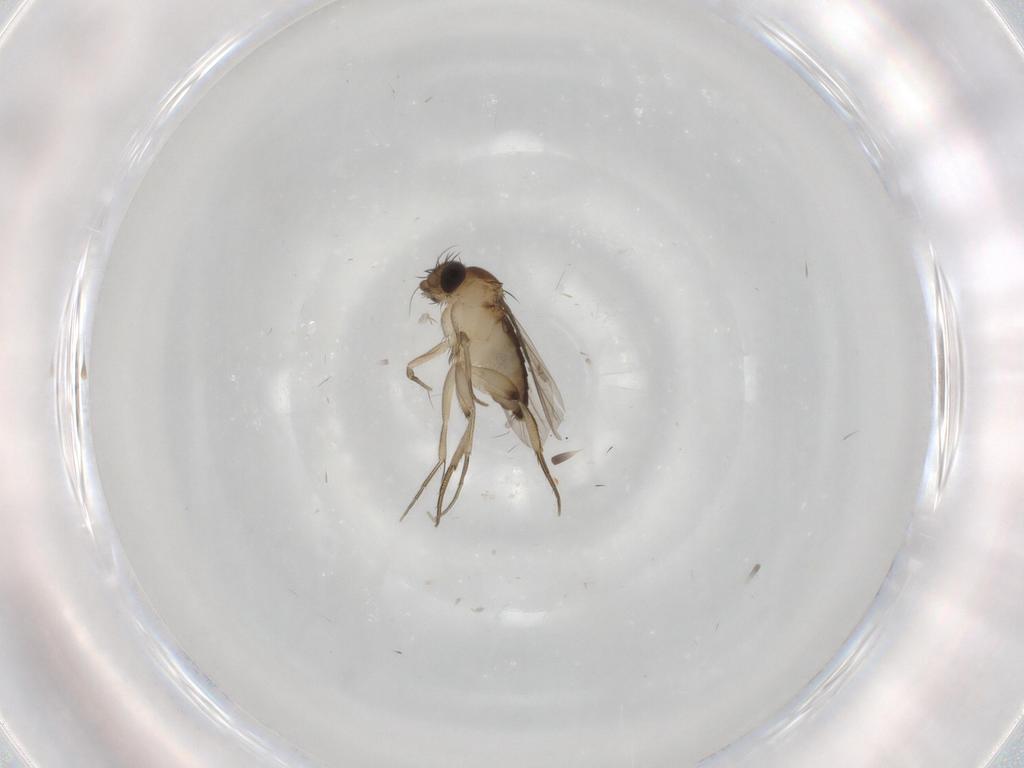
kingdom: Animalia
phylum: Arthropoda
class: Insecta
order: Diptera
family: Phoridae
